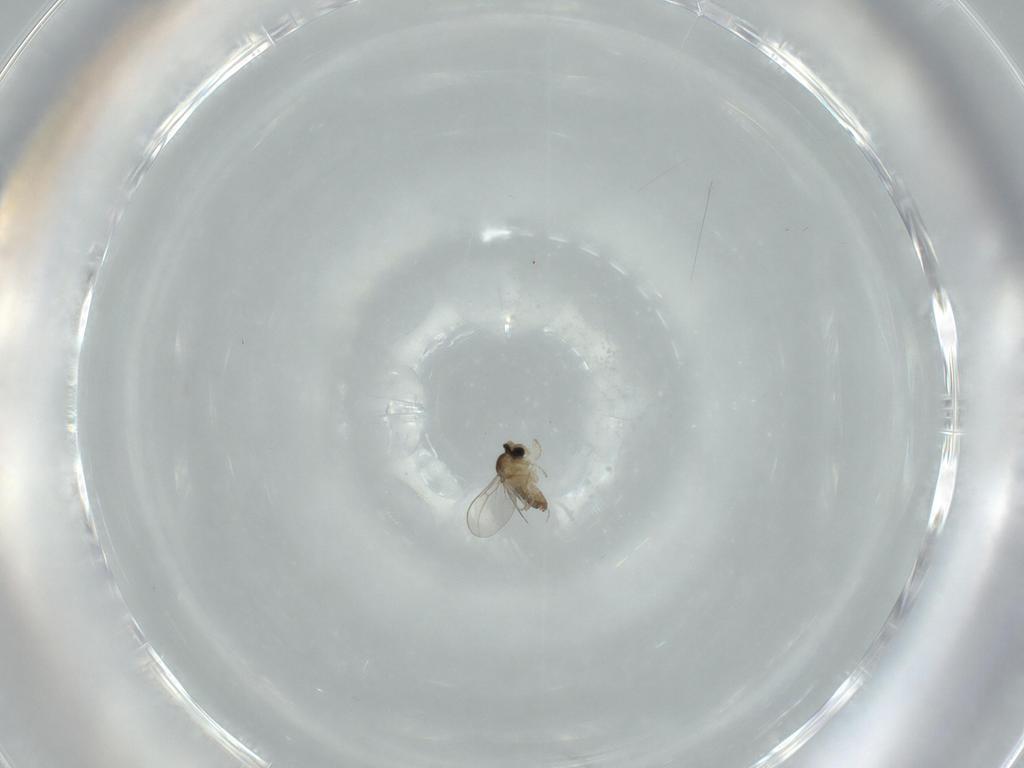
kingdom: Animalia
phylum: Arthropoda
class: Insecta
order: Diptera
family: Cecidomyiidae
